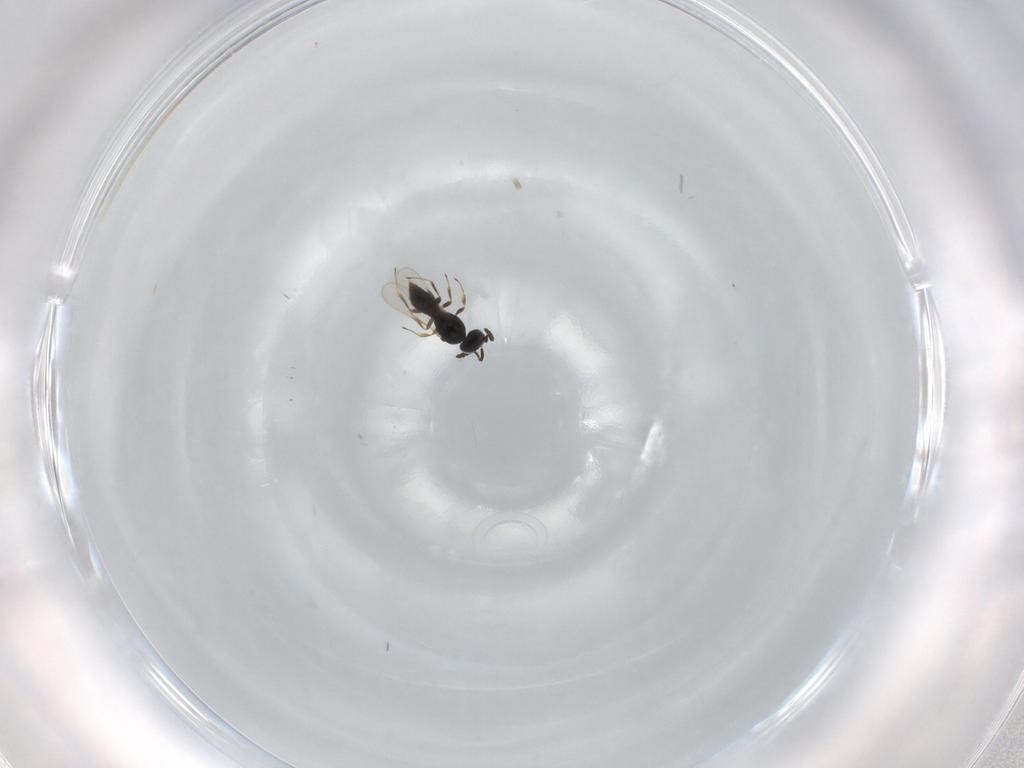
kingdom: Animalia
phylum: Arthropoda
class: Insecta
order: Hymenoptera
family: Scelionidae
